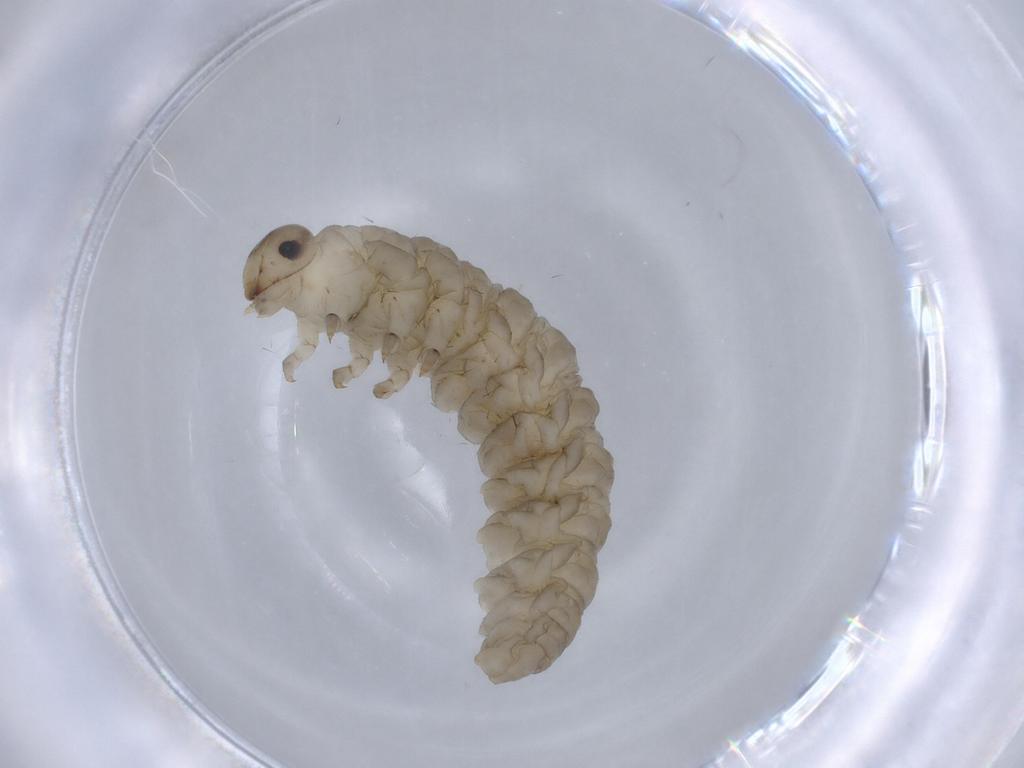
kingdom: Animalia
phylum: Arthropoda
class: Insecta
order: Hymenoptera
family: Tenthredinidae
